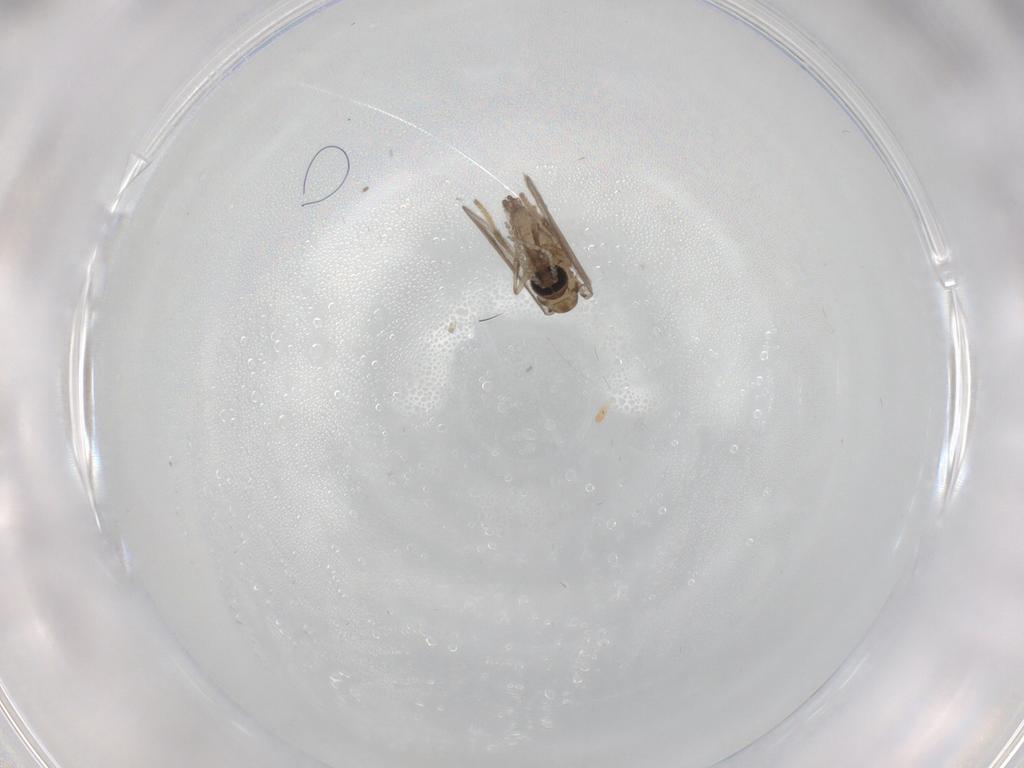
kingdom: Animalia
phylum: Arthropoda
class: Insecta
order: Diptera
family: Psychodidae
